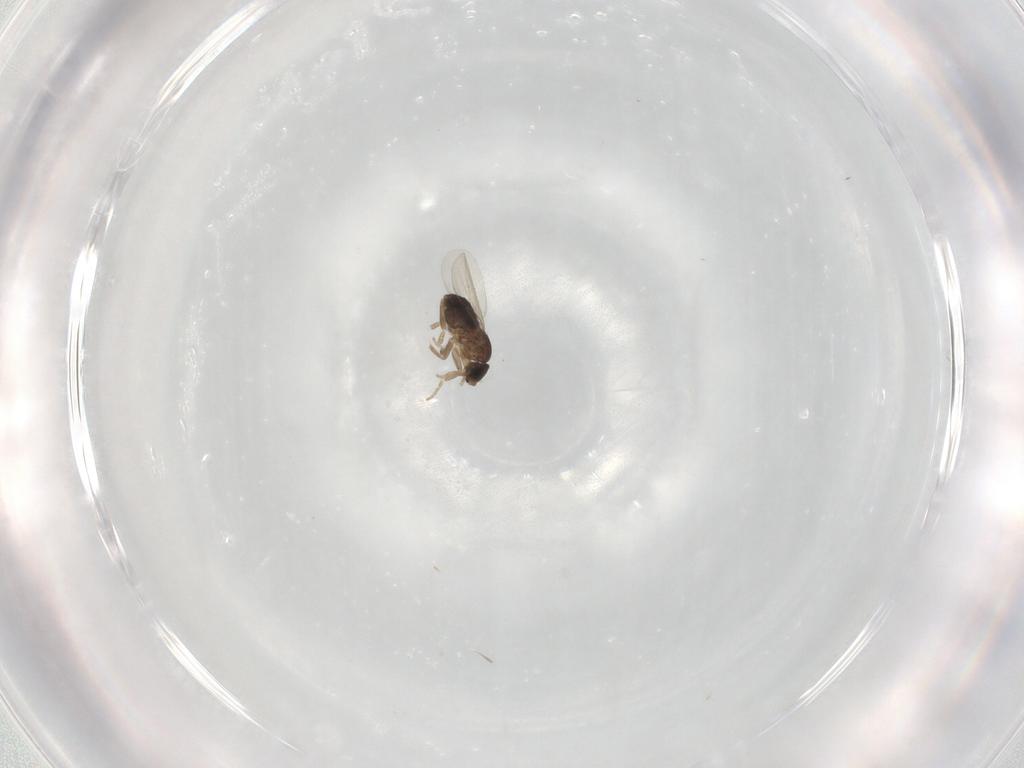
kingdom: Animalia
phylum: Arthropoda
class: Insecta
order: Diptera
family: Phoridae
